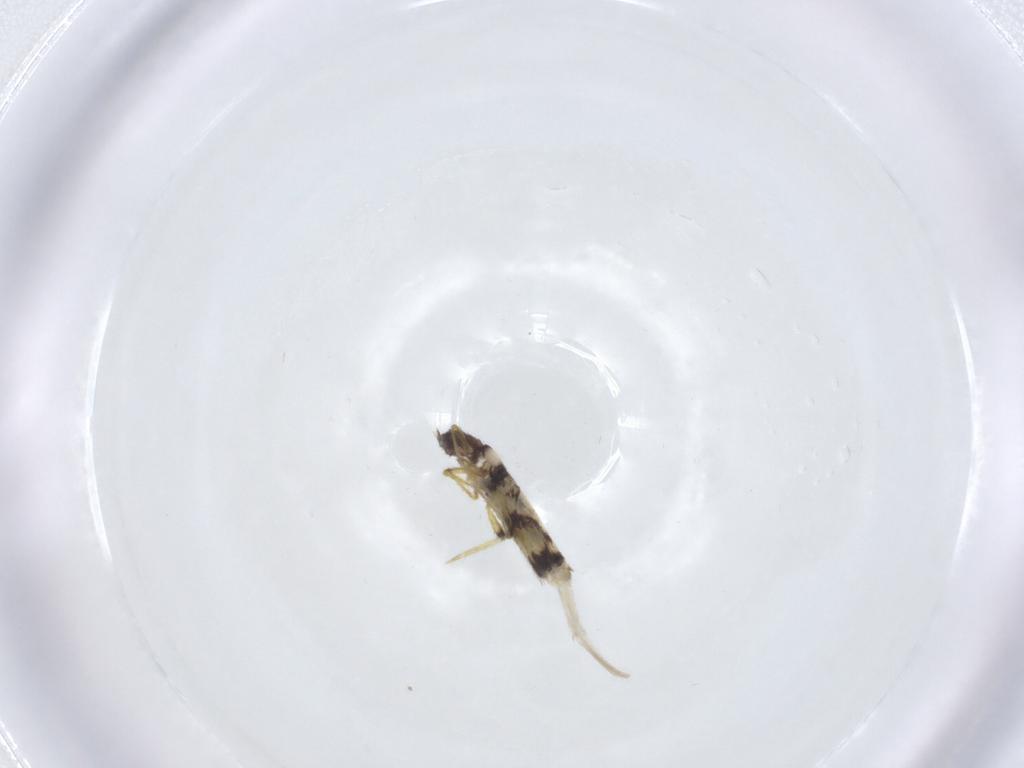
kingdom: Animalia
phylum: Arthropoda
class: Collembola
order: Entomobryomorpha
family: Entomobryidae
